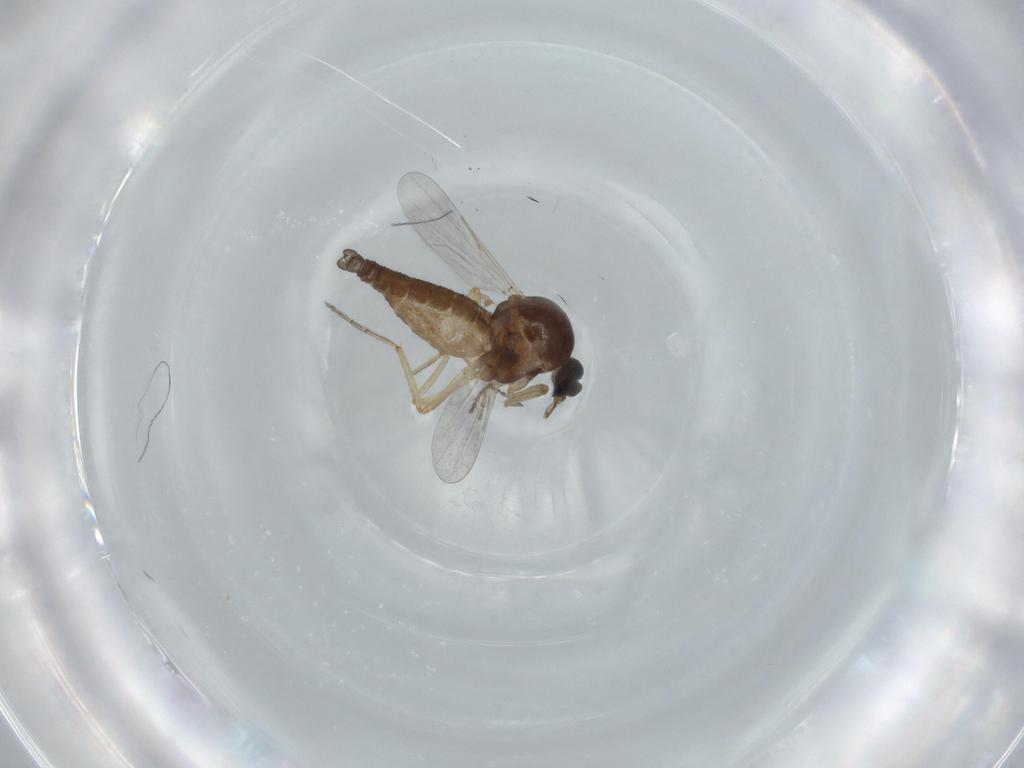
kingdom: Animalia
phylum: Arthropoda
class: Insecta
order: Diptera
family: Ceratopogonidae
